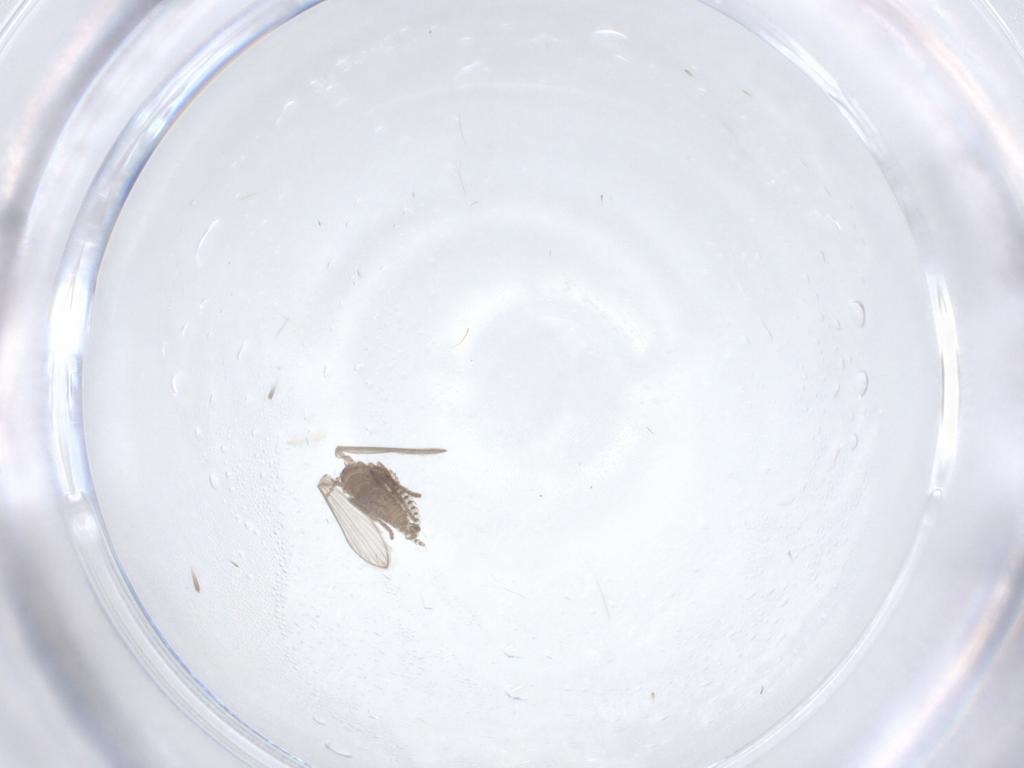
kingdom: Animalia
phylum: Arthropoda
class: Insecta
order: Diptera
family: Psychodidae
